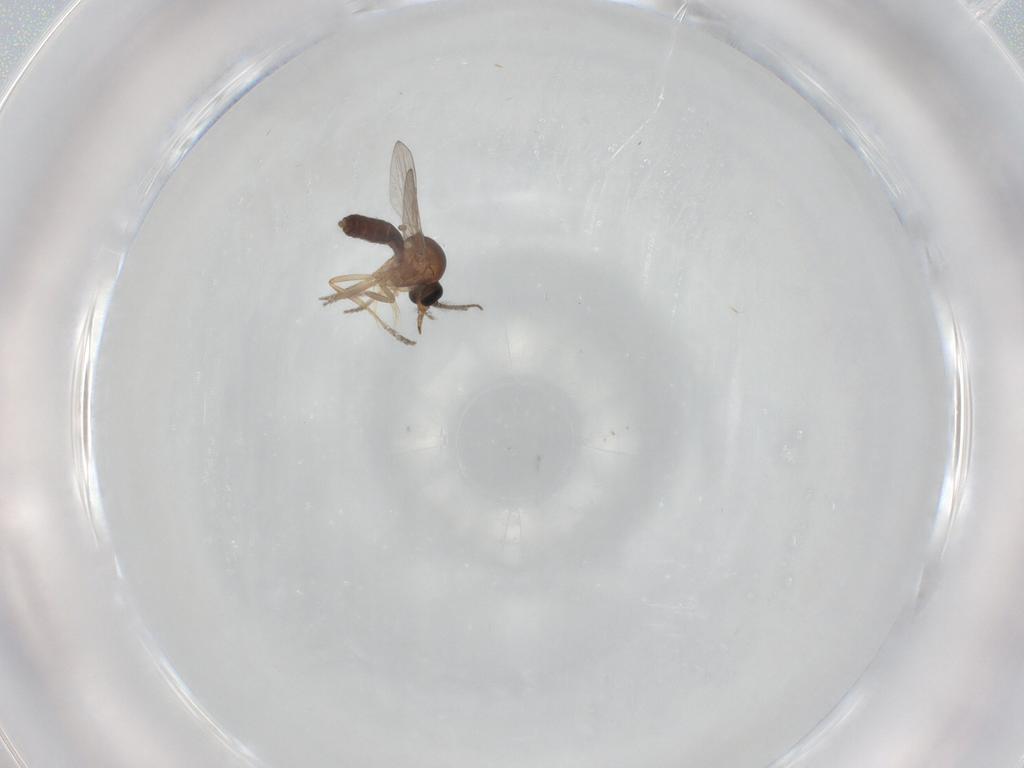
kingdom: Animalia
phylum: Arthropoda
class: Insecta
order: Diptera
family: Ceratopogonidae
